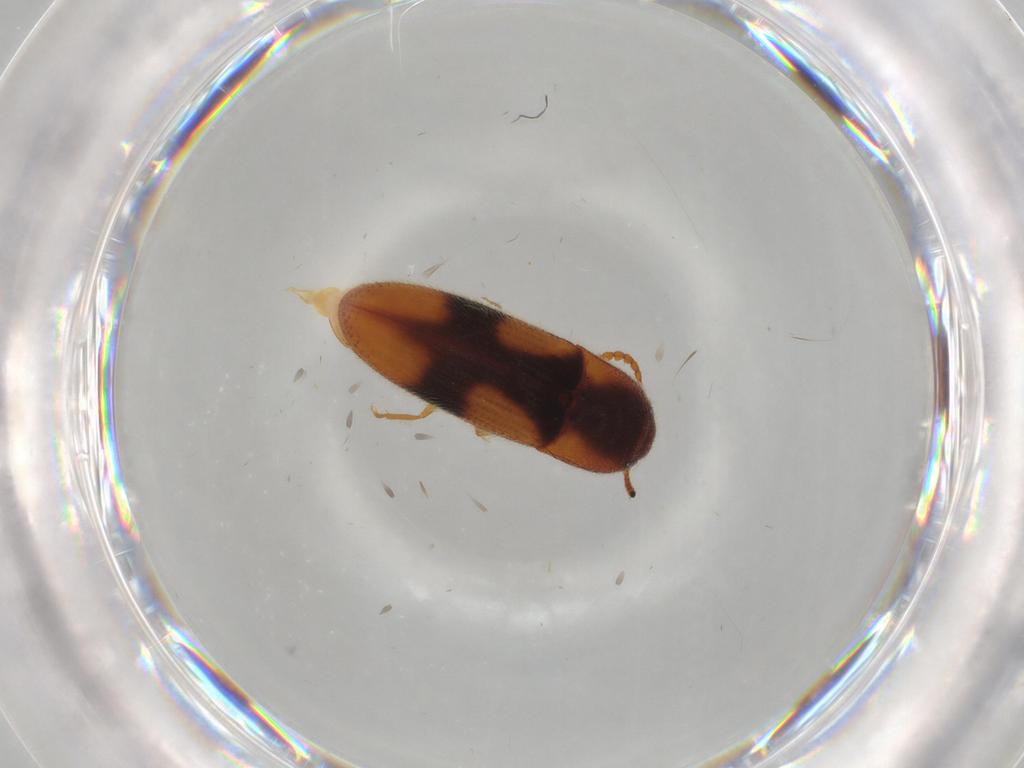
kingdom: Animalia
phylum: Arthropoda
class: Insecta
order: Coleoptera
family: Elateridae
